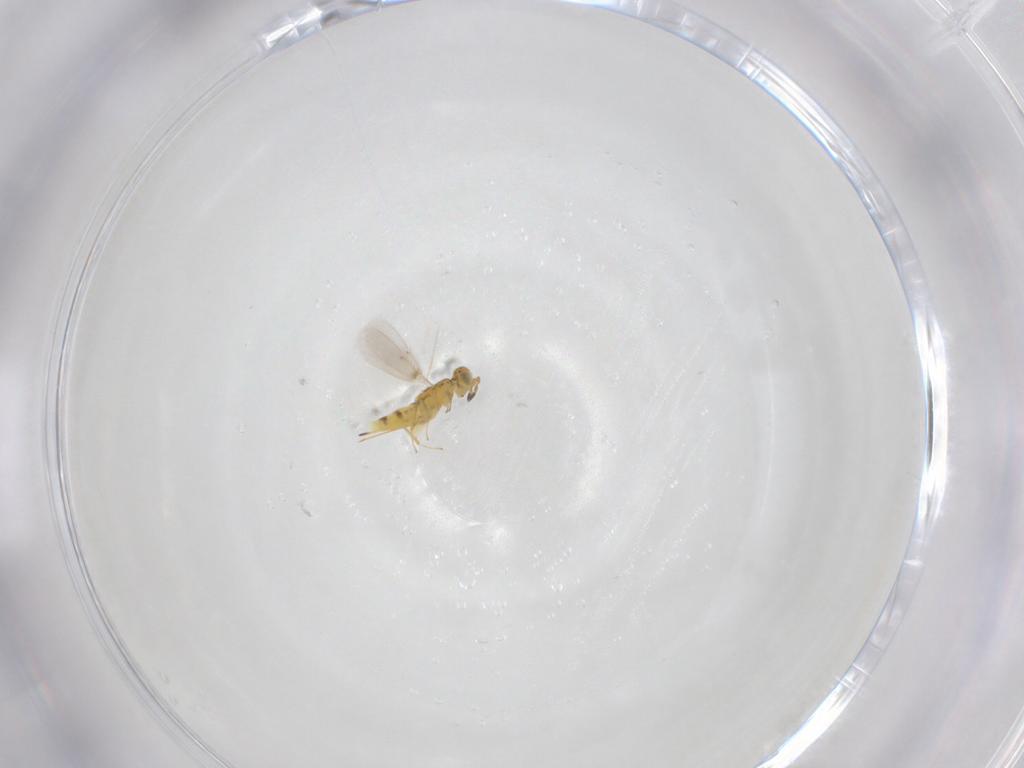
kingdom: Animalia
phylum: Arthropoda
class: Insecta
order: Hymenoptera
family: Aphelinidae
